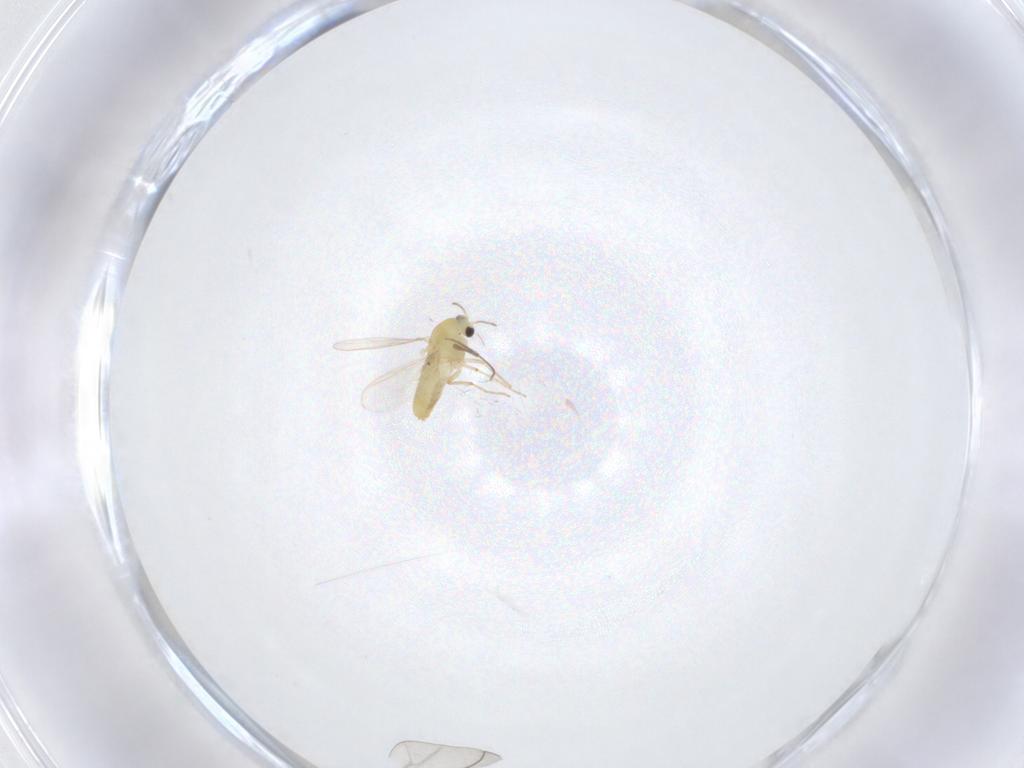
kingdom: Animalia
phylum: Arthropoda
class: Insecta
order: Diptera
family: Cecidomyiidae
